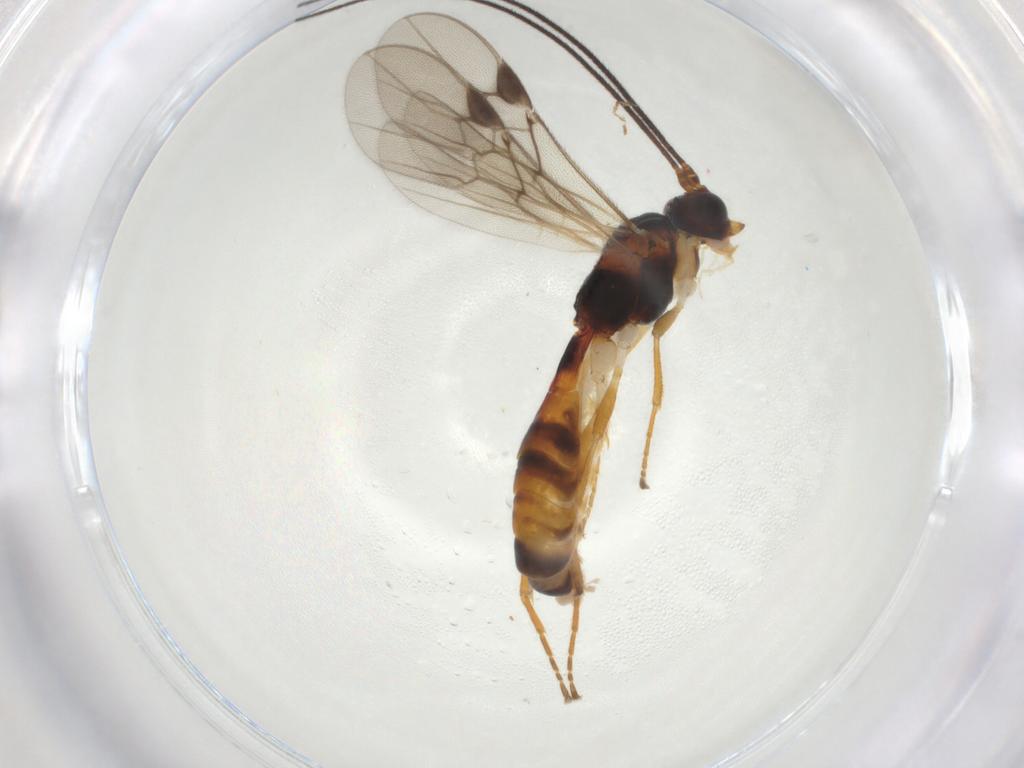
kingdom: Animalia
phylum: Arthropoda
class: Insecta
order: Hymenoptera
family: Braconidae
